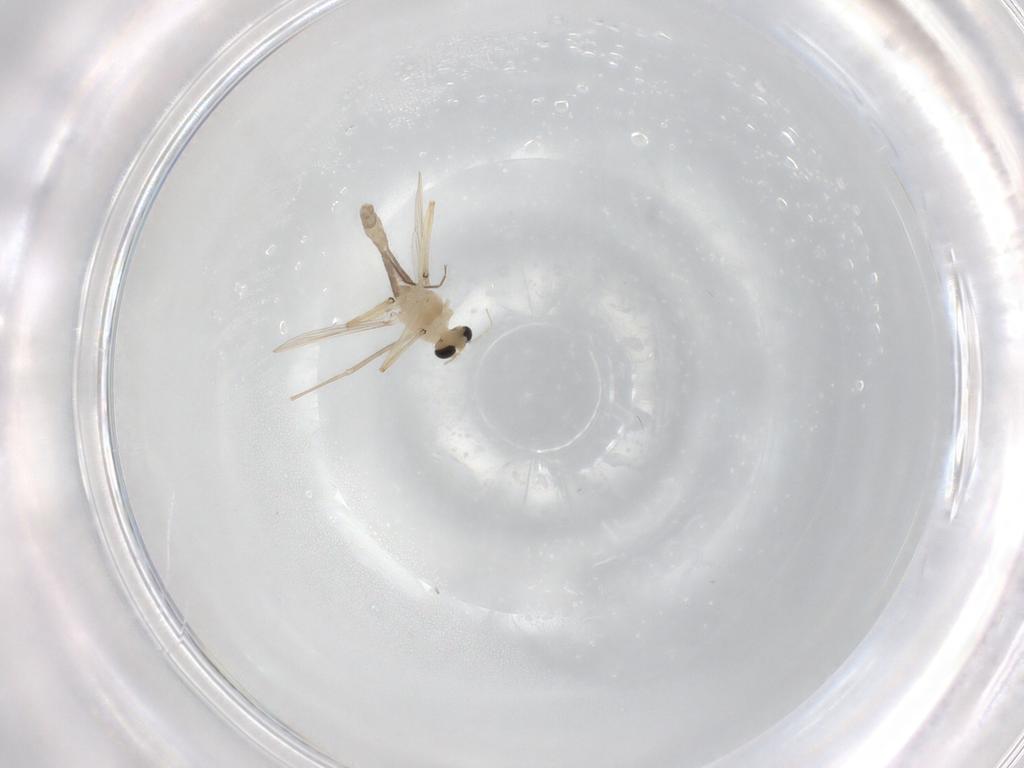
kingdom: Animalia
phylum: Arthropoda
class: Insecta
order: Diptera
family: Chironomidae
